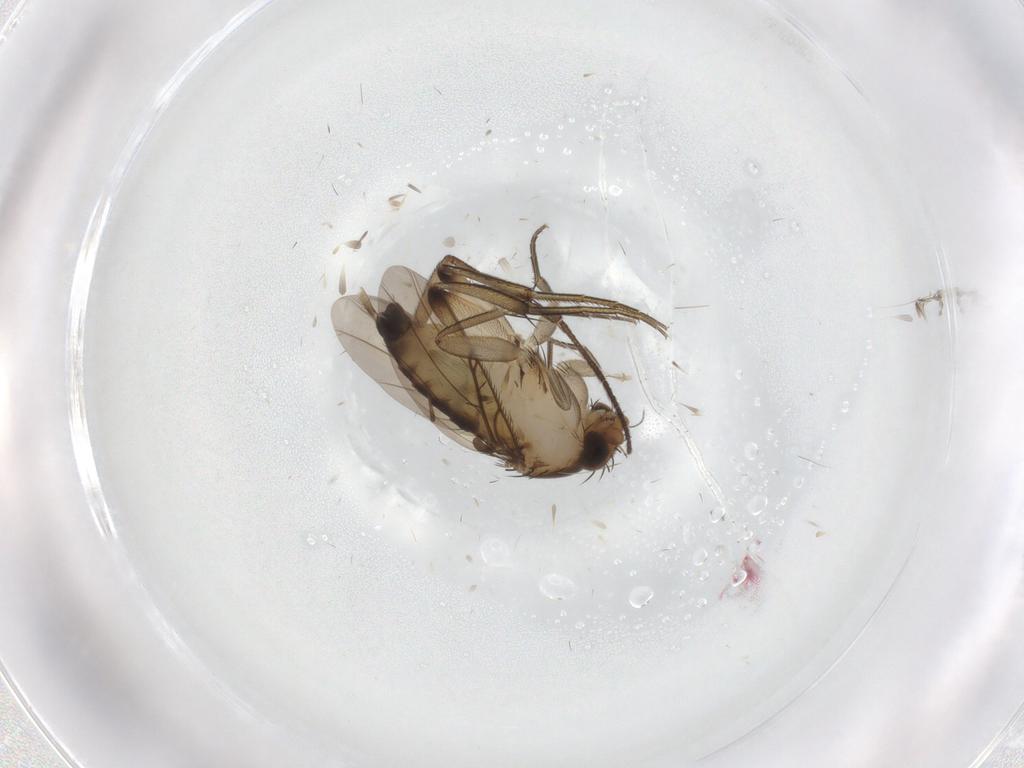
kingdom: Animalia
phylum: Arthropoda
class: Insecta
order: Diptera
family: Phoridae
